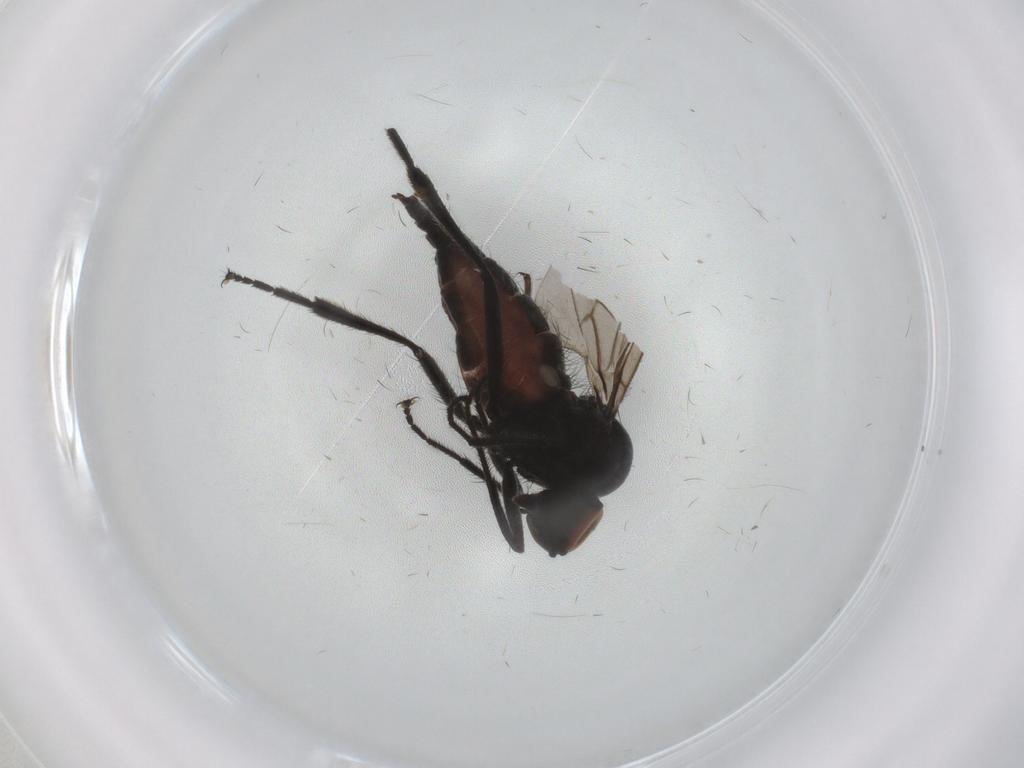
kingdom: Animalia
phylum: Arthropoda
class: Insecta
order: Diptera
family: Ceratopogonidae
